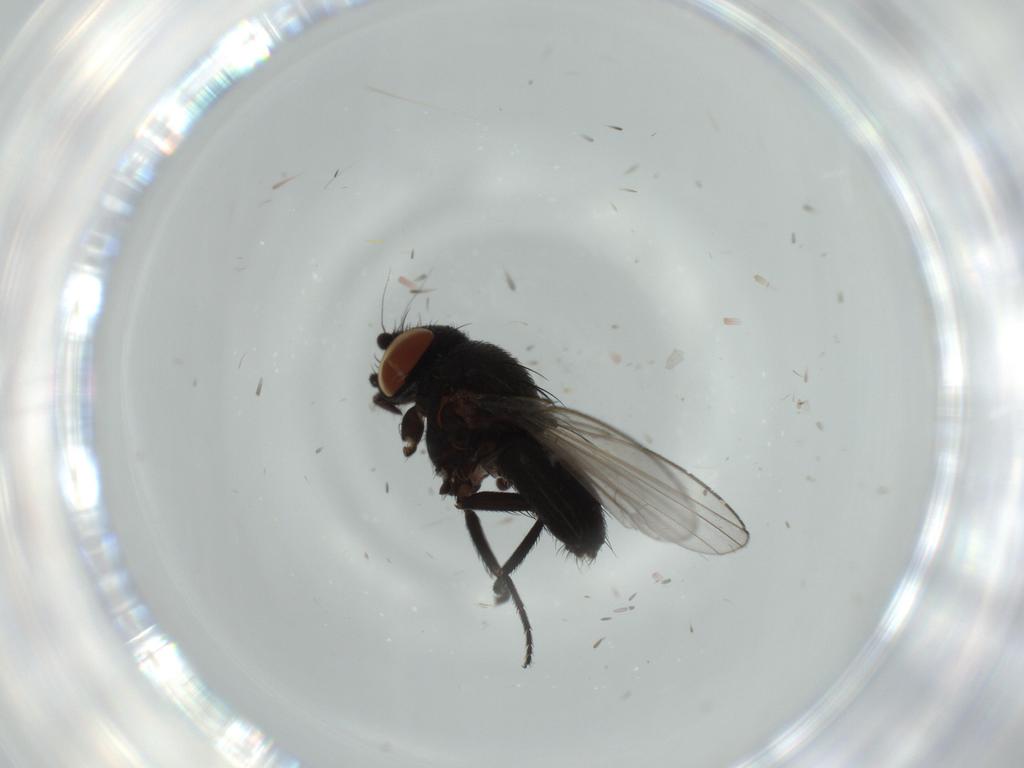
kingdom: Animalia
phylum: Arthropoda
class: Insecta
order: Diptera
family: Milichiidae
